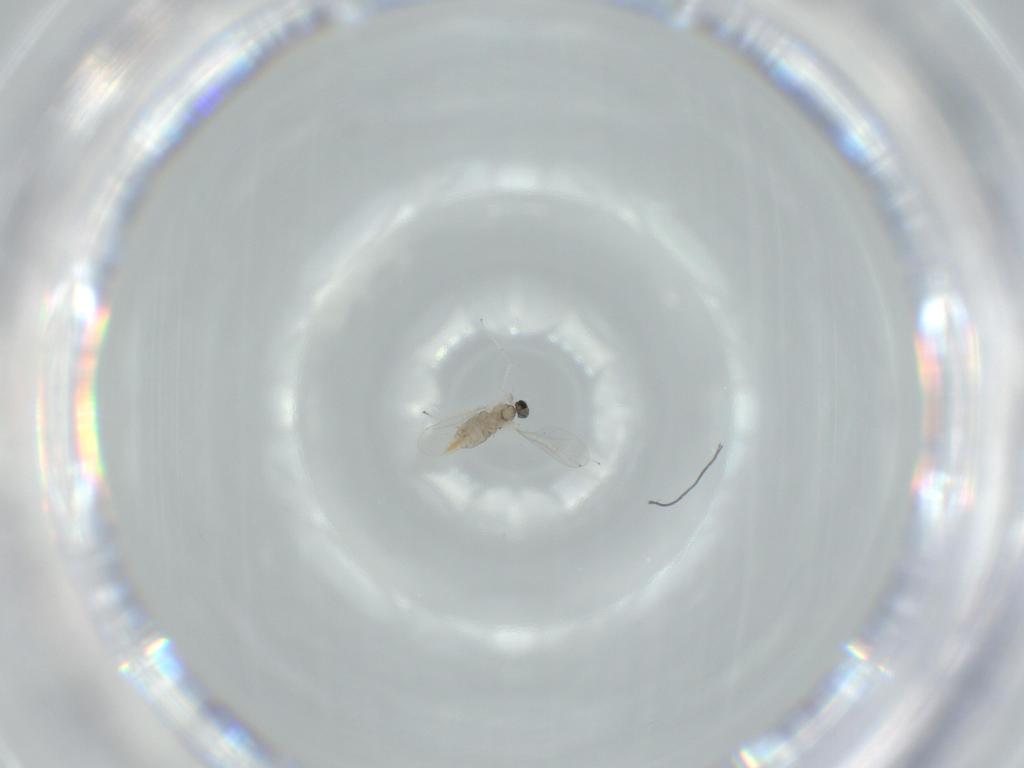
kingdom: Animalia
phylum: Arthropoda
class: Insecta
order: Diptera
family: Cecidomyiidae
